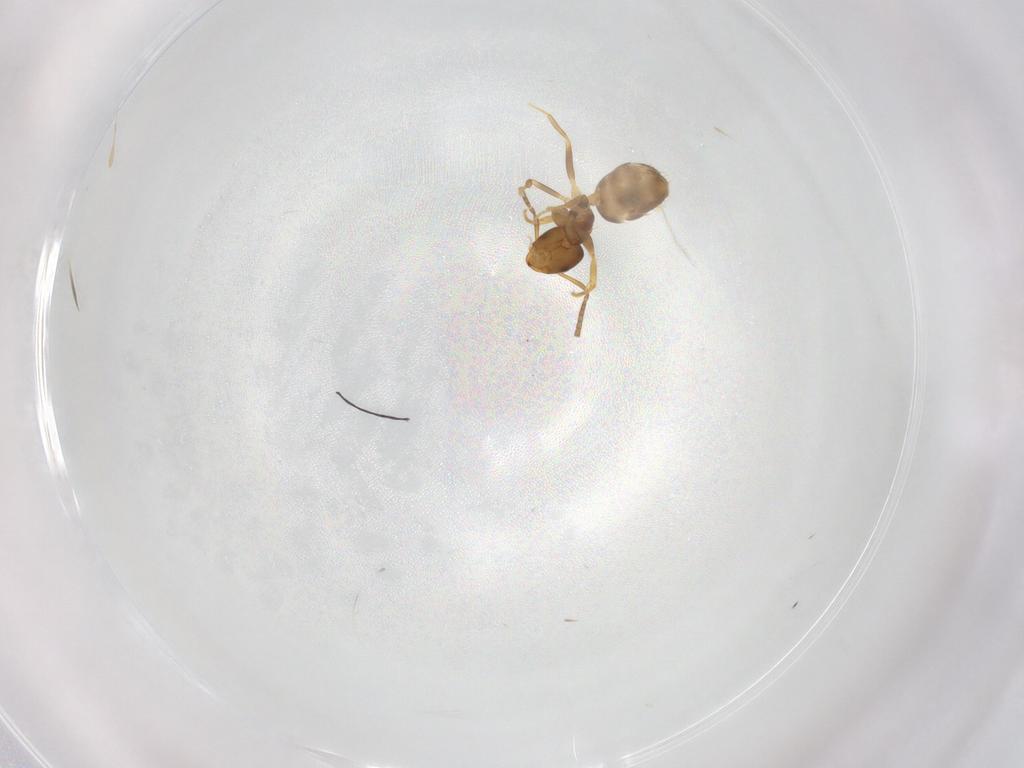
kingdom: Animalia
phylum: Arthropoda
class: Insecta
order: Hymenoptera
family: Formicidae
